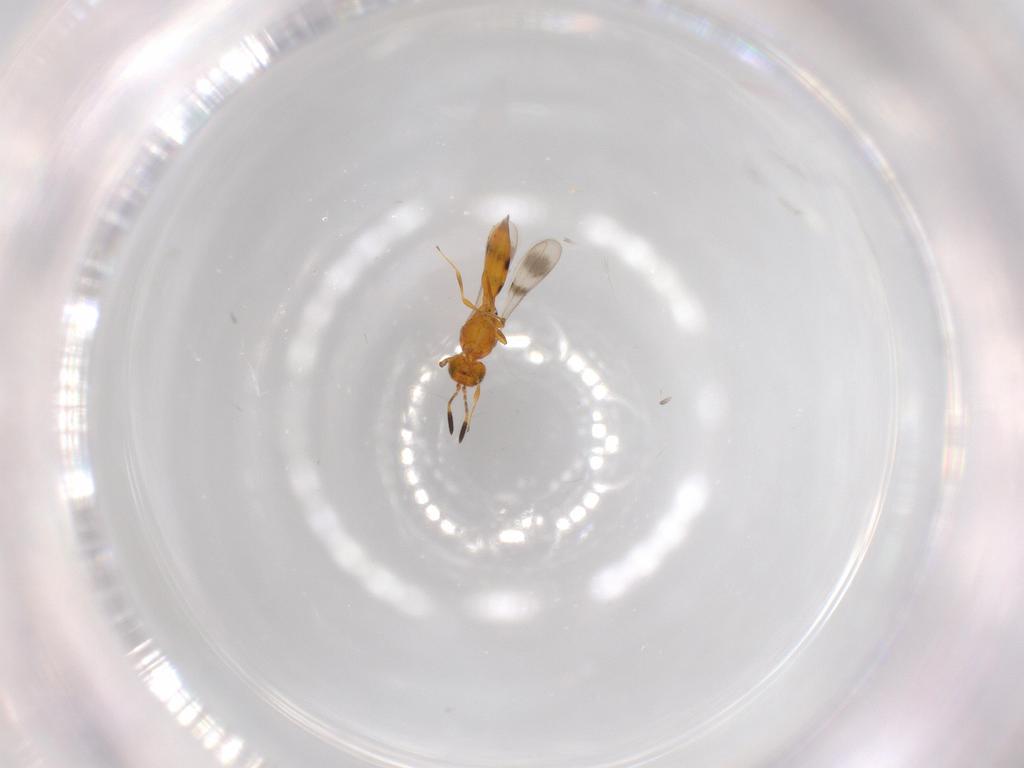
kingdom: Animalia
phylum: Arthropoda
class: Insecta
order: Hymenoptera
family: Scelionidae
